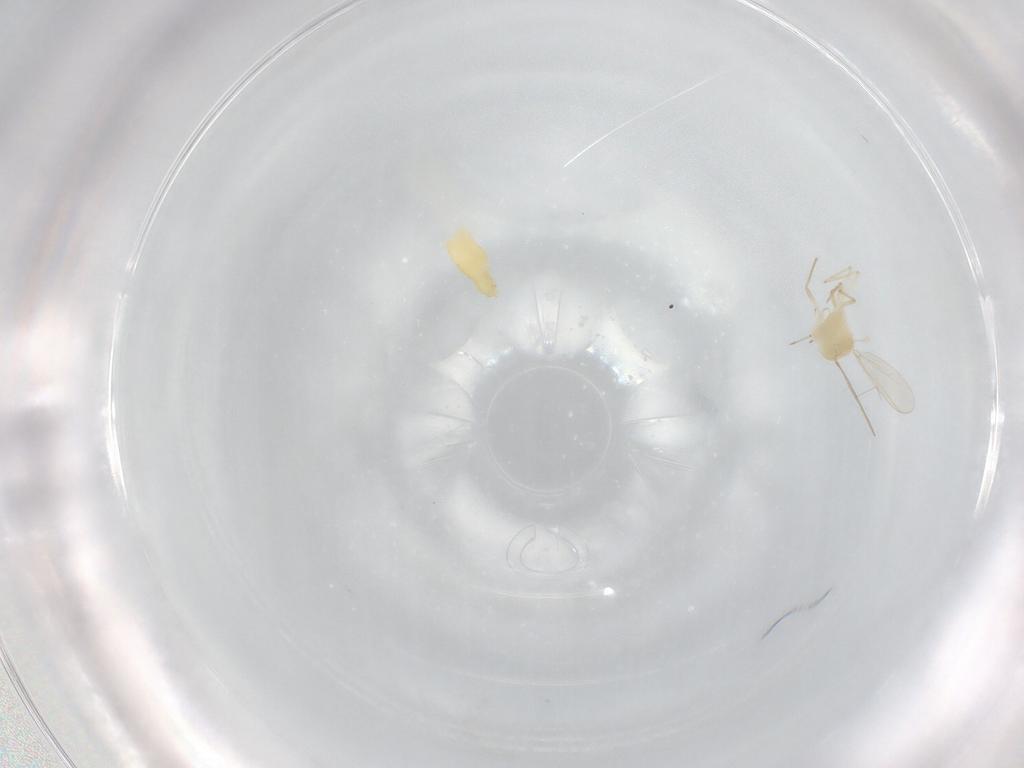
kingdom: Animalia
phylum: Arthropoda
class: Insecta
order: Diptera
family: Chironomidae
